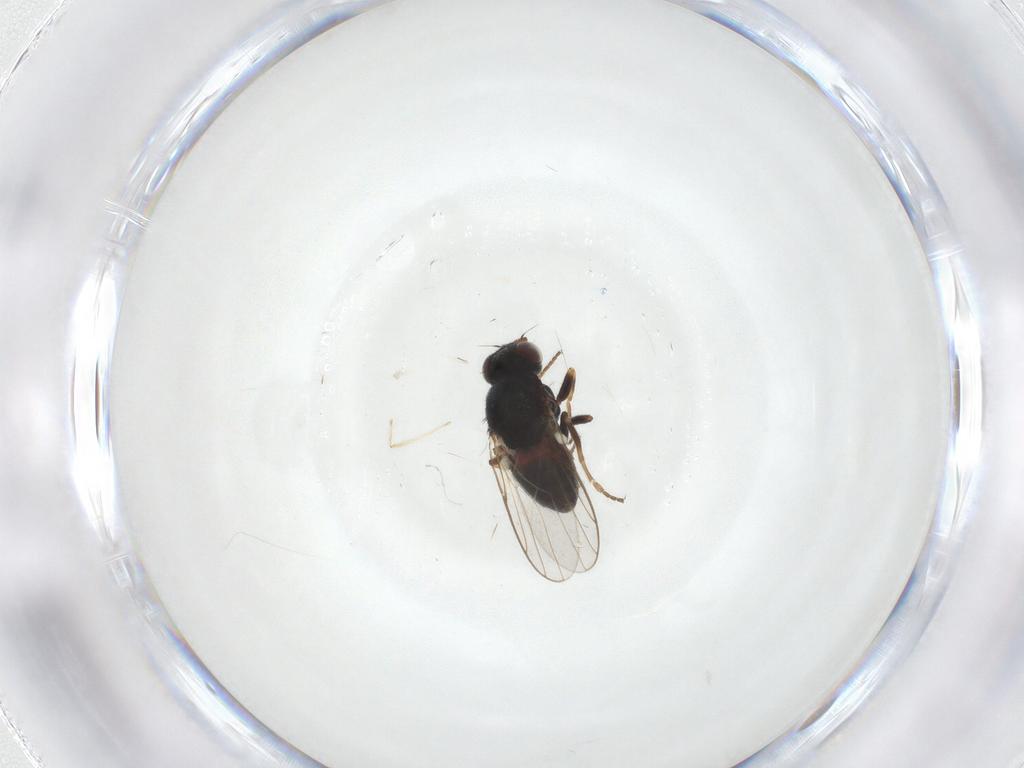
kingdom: Animalia
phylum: Arthropoda
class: Insecta
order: Diptera
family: Chloropidae
